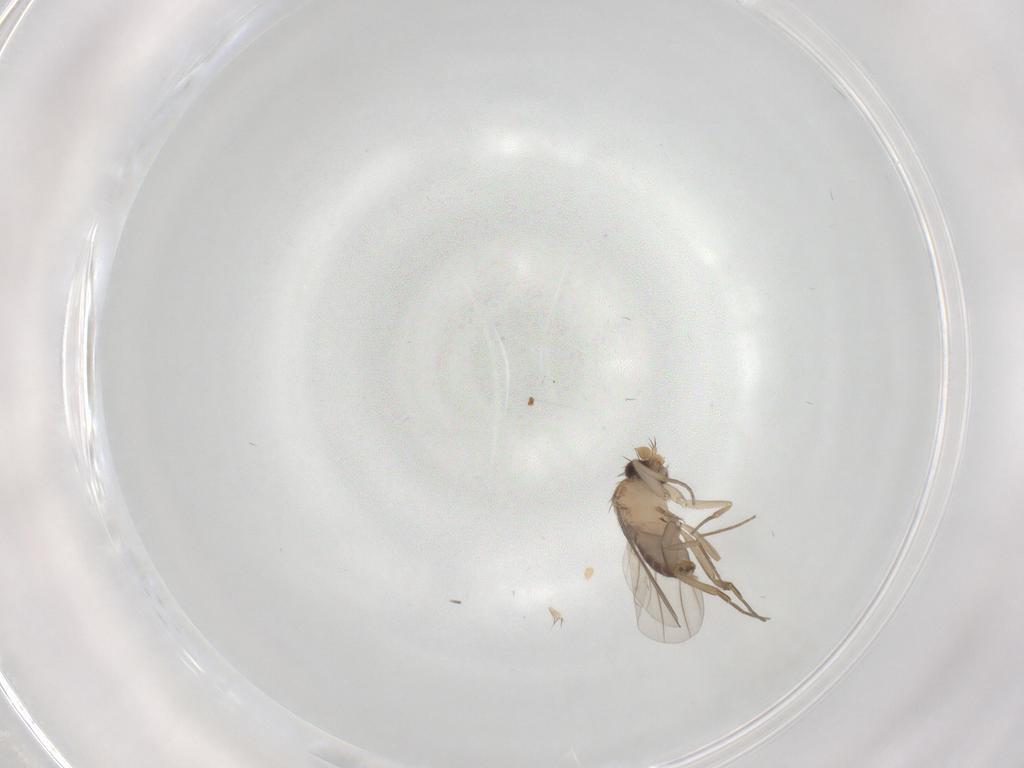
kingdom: Animalia
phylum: Arthropoda
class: Insecta
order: Diptera
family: Phoridae
